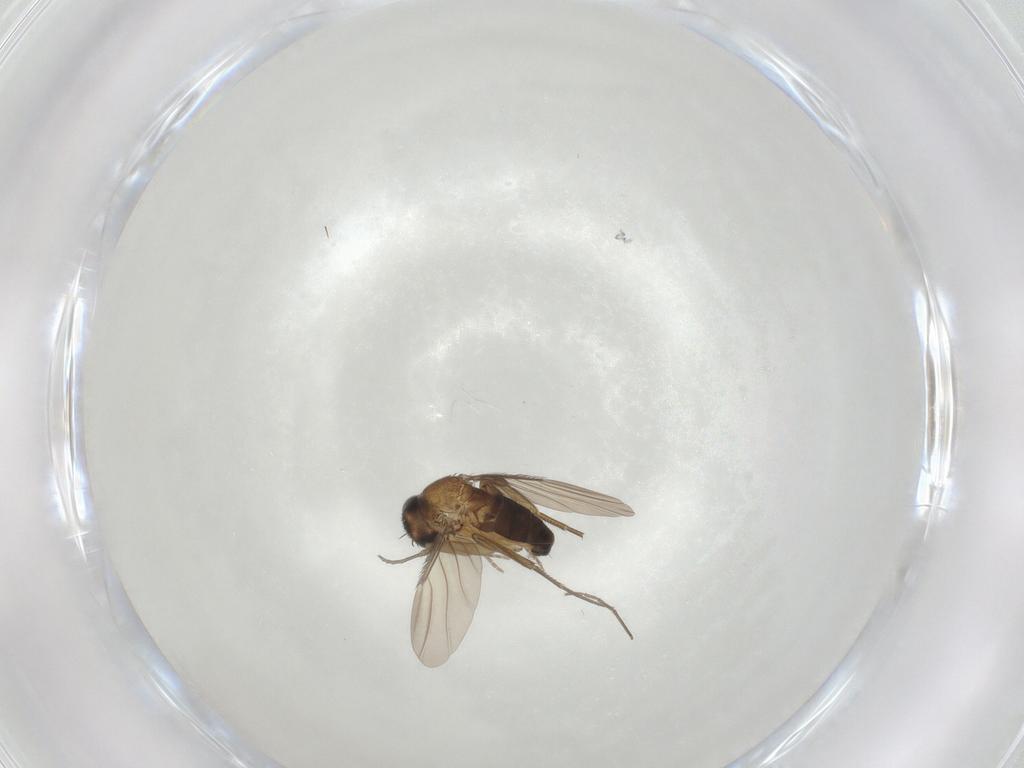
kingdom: Animalia
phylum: Arthropoda
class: Insecta
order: Diptera
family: Phoridae
